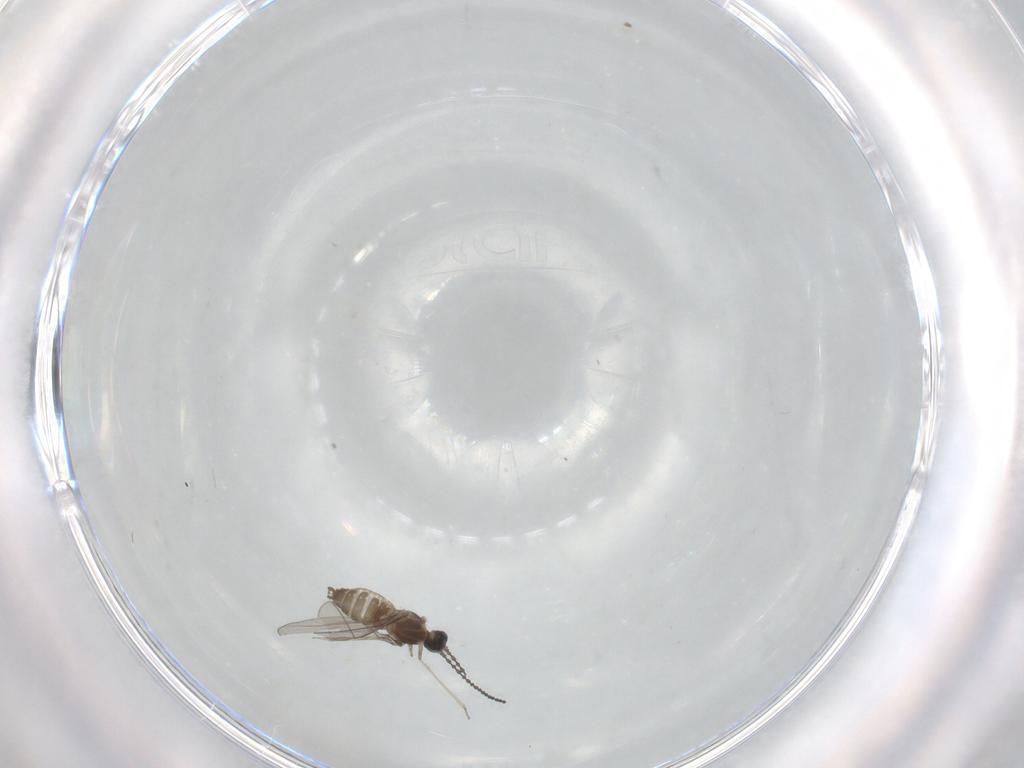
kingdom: Animalia
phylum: Arthropoda
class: Insecta
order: Diptera
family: Cecidomyiidae
